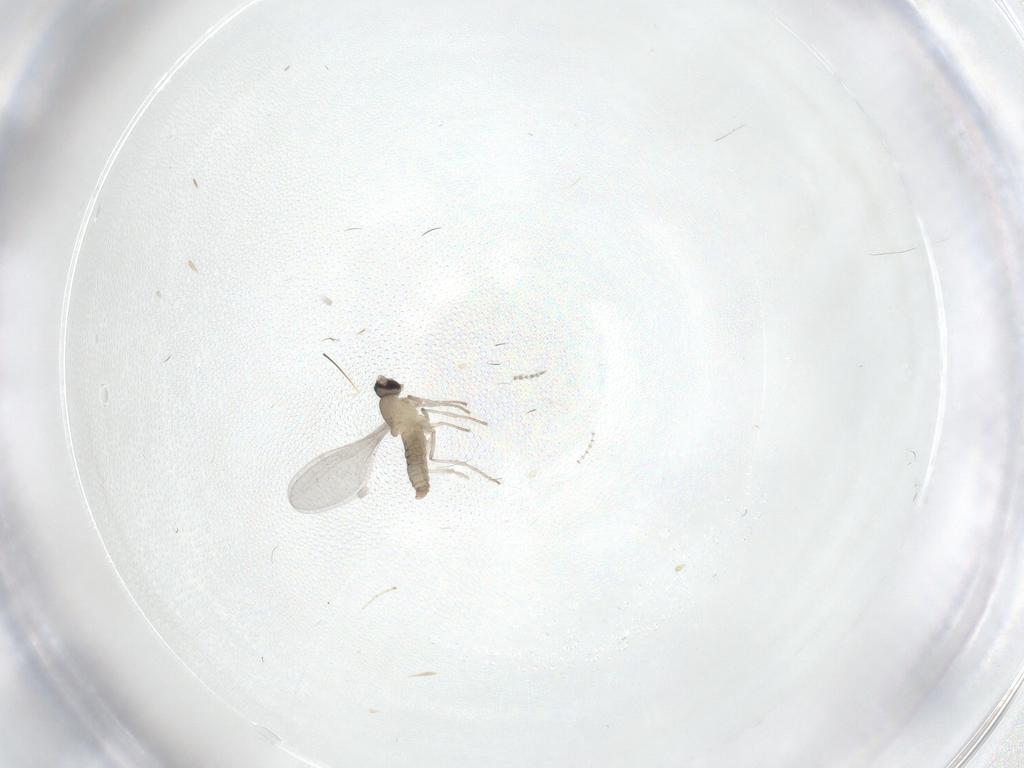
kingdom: Animalia
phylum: Arthropoda
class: Insecta
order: Diptera
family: Cecidomyiidae
